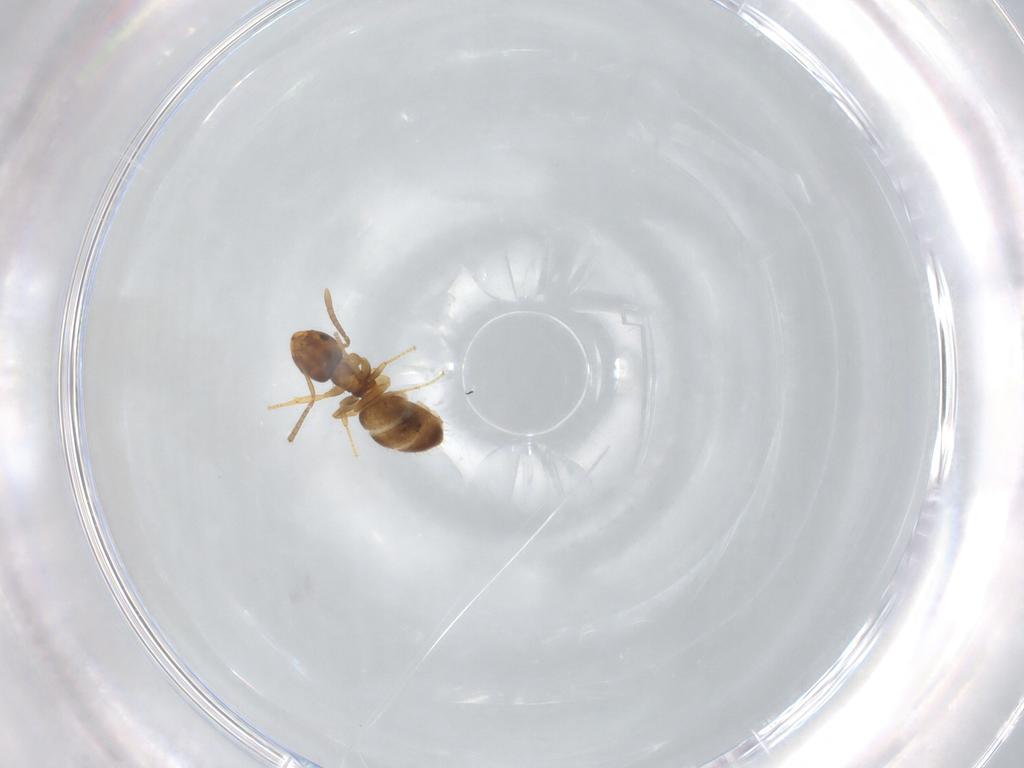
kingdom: Animalia
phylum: Arthropoda
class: Insecta
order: Hymenoptera
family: Formicidae
